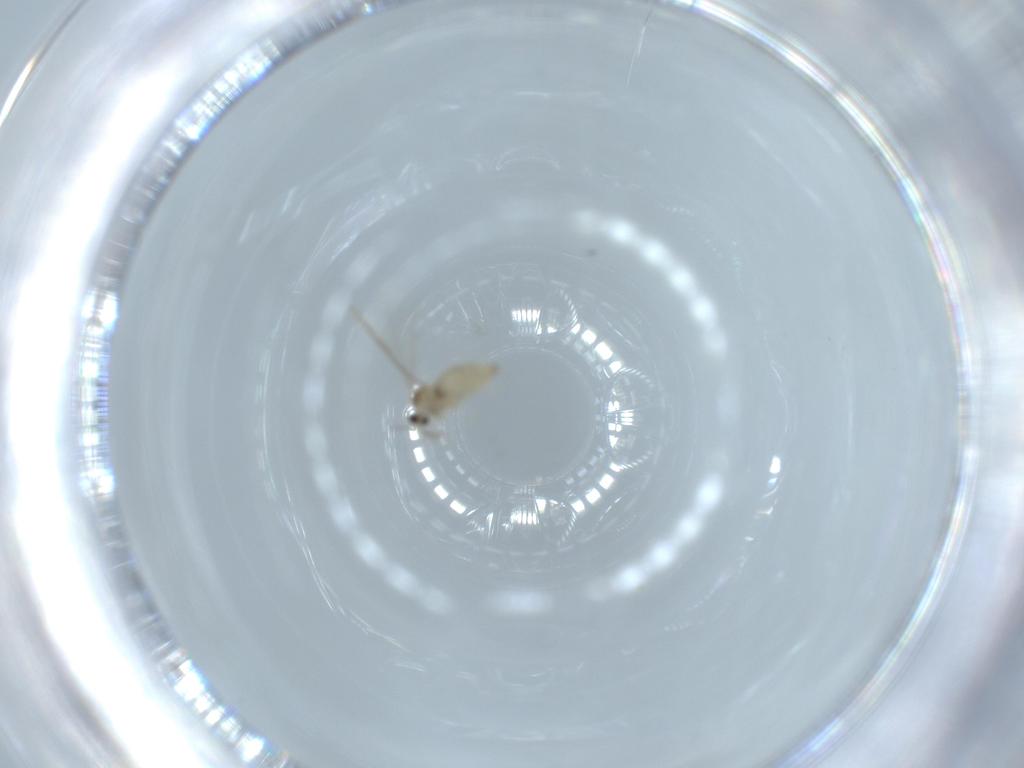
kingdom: Animalia
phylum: Arthropoda
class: Insecta
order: Diptera
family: Cecidomyiidae
